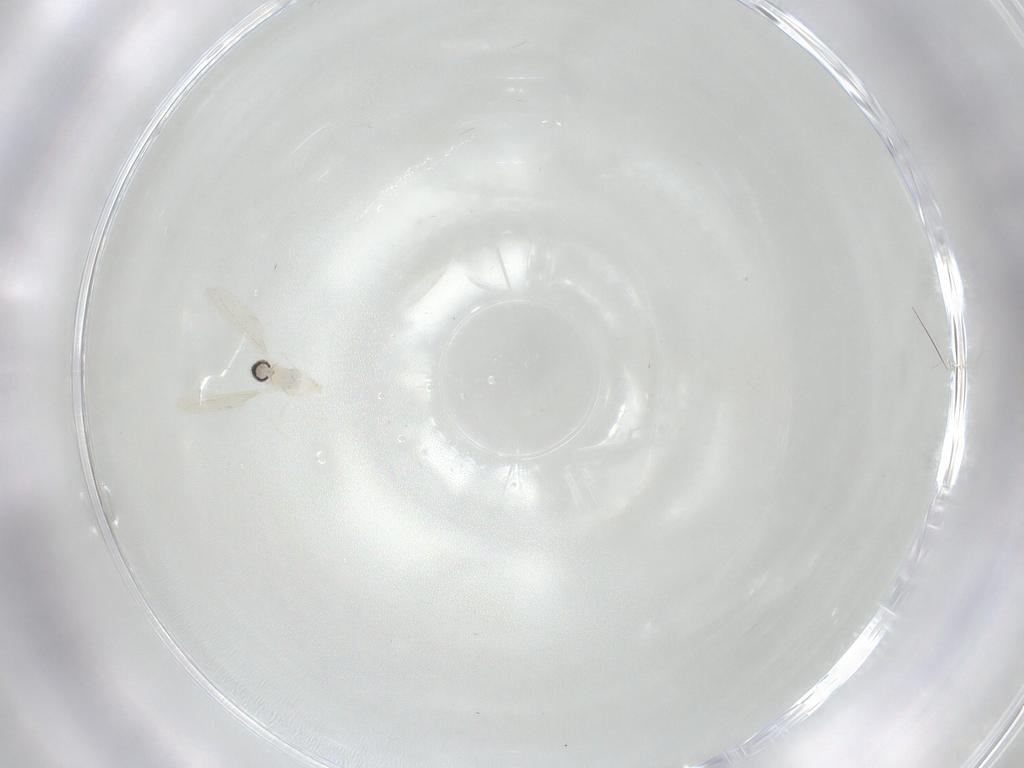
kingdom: Animalia
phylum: Arthropoda
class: Insecta
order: Diptera
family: Cecidomyiidae
